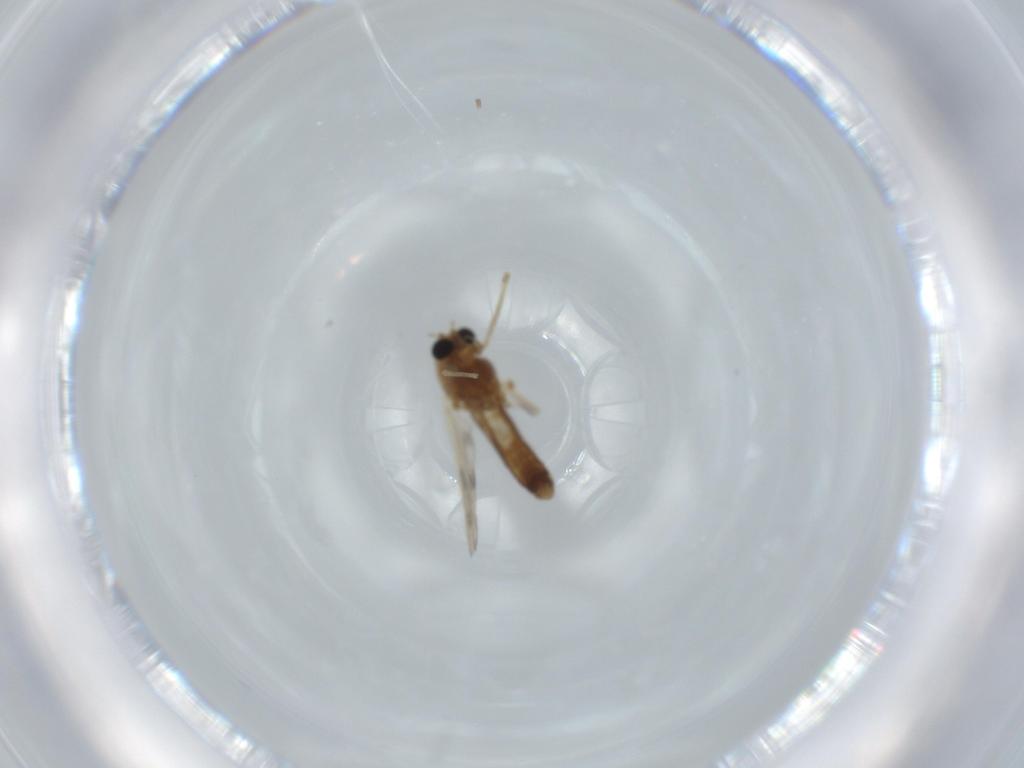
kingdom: Animalia
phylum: Arthropoda
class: Insecta
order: Diptera
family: Chironomidae
